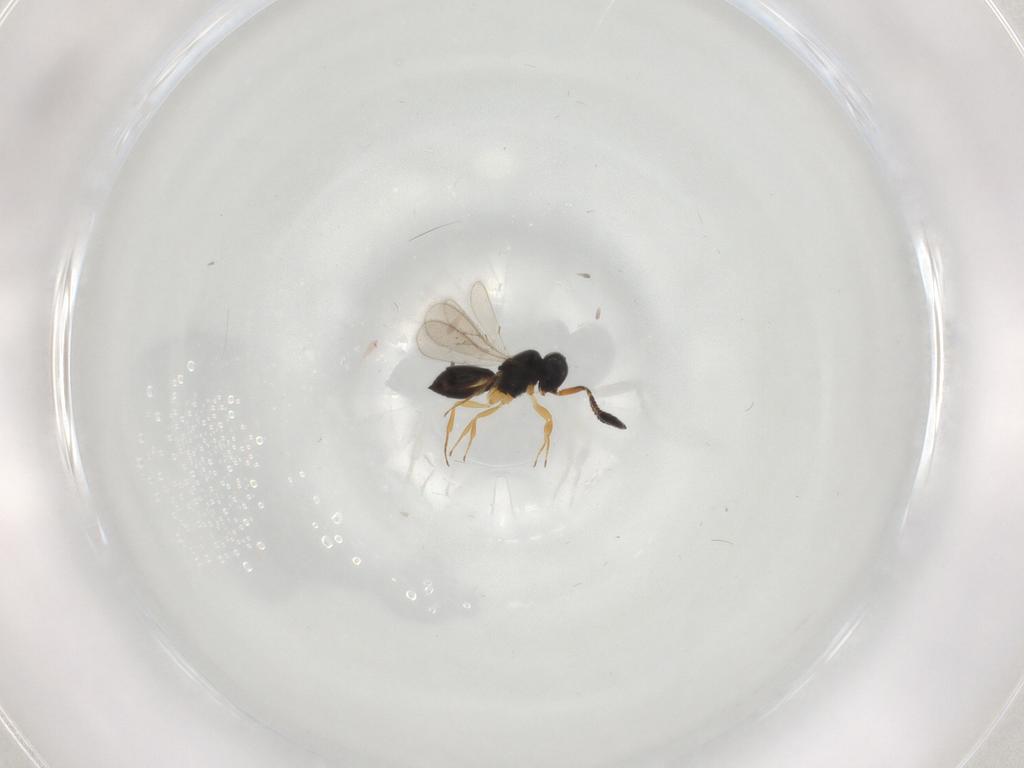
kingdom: Animalia
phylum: Arthropoda
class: Insecta
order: Hymenoptera
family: Scelionidae
